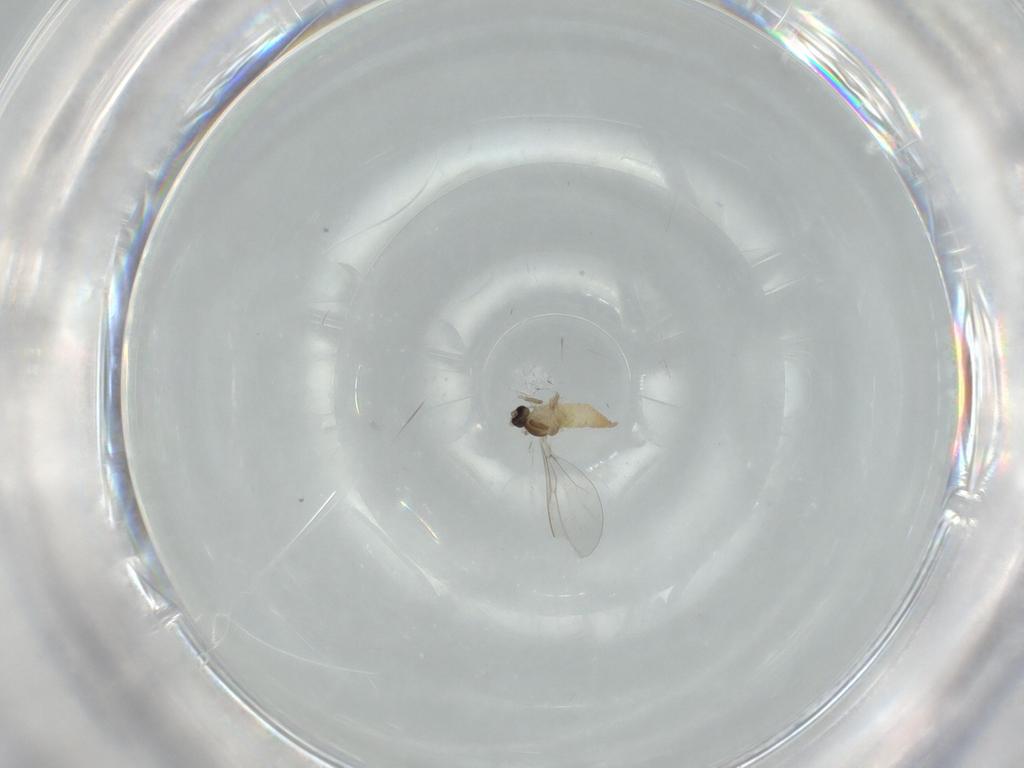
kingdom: Animalia
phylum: Arthropoda
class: Insecta
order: Diptera
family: Cecidomyiidae
